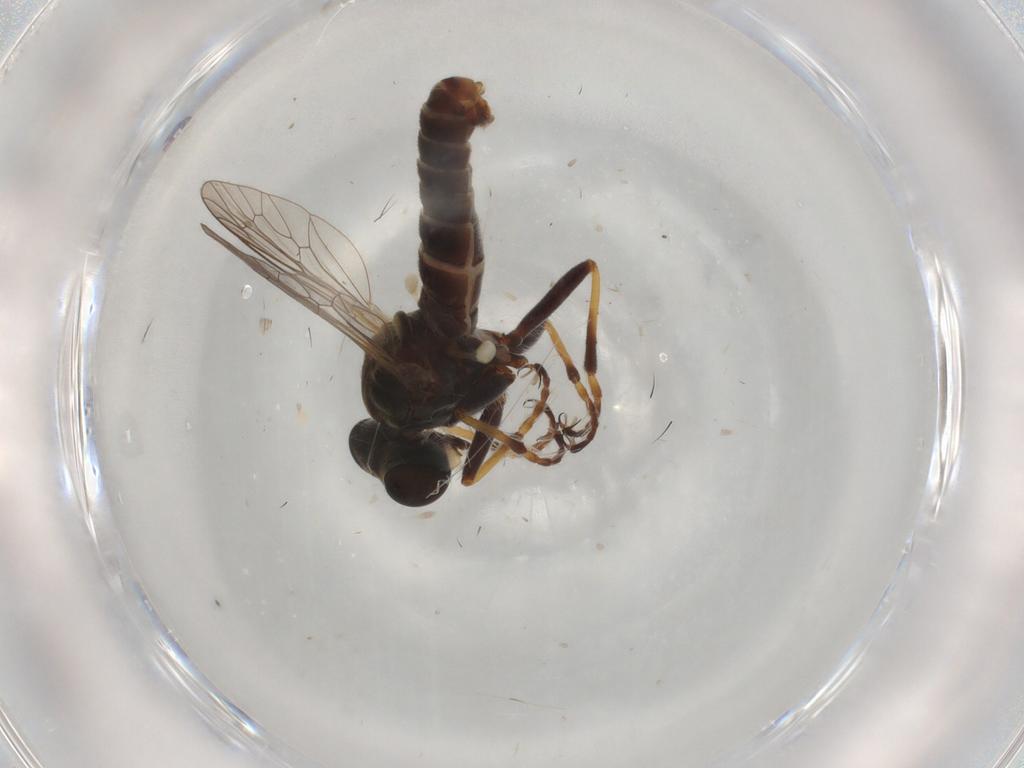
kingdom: Animalia
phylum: Arthropoda
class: Insecta
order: Diptera
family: Asilidae
